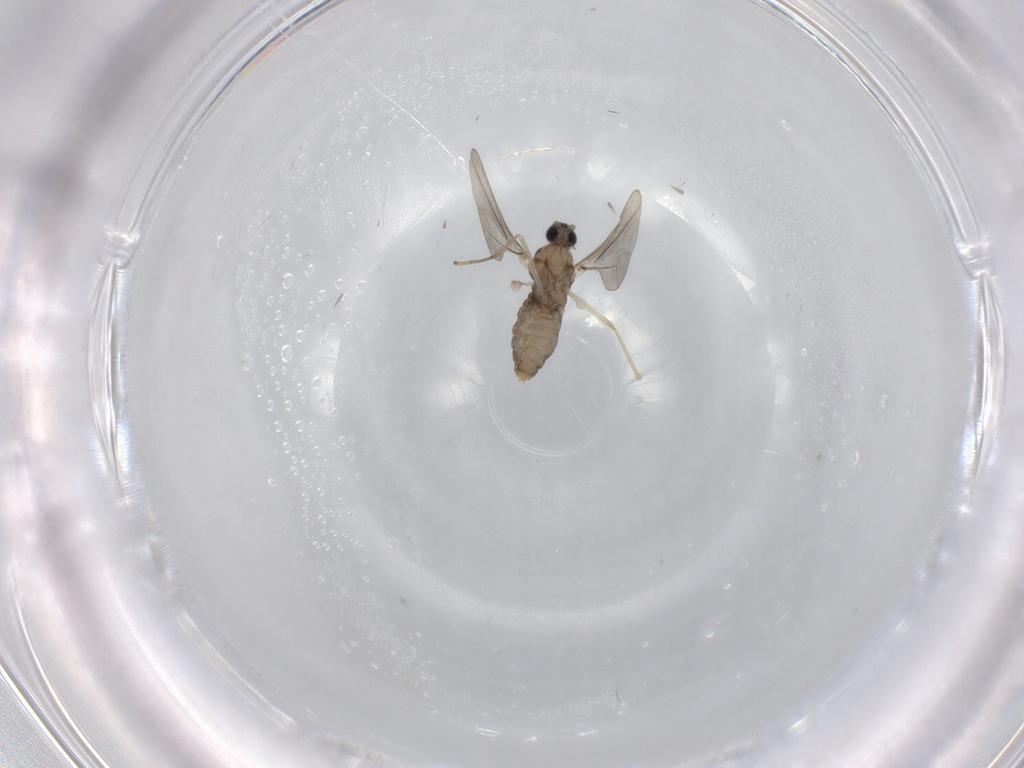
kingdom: Animalia
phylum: Arthropoda
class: Insecta
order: Diptera
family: Cecidomyiidae
